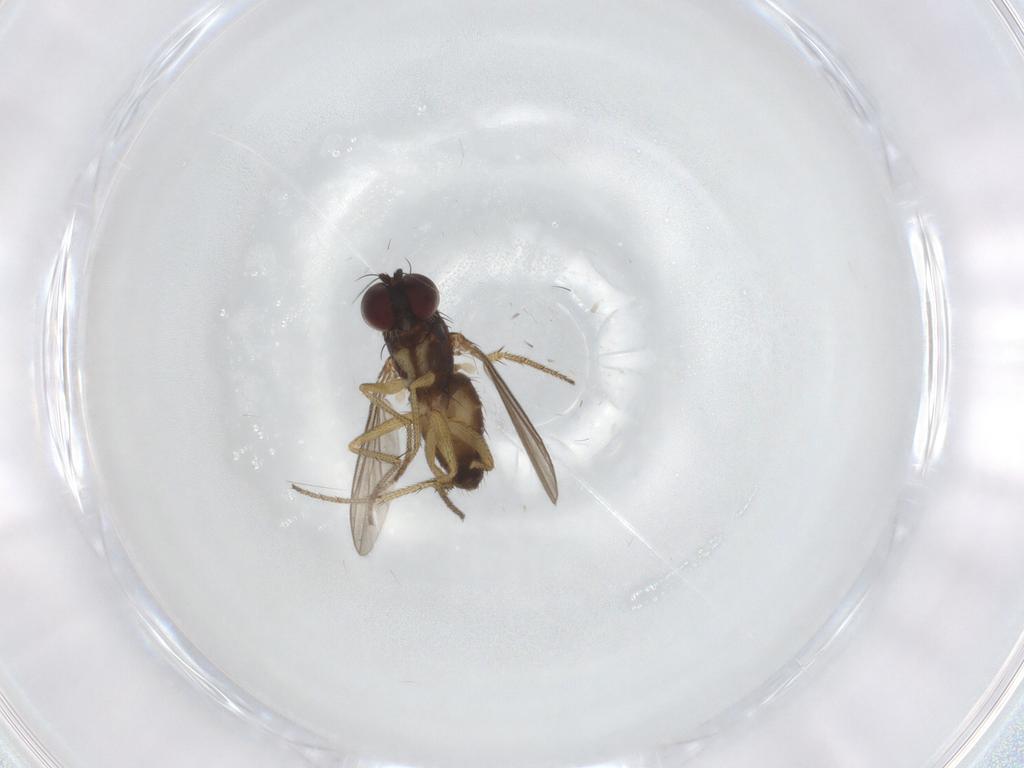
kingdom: Animalia
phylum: Arthropoda
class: Insecta
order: Diptera
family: Dolichopodidae
